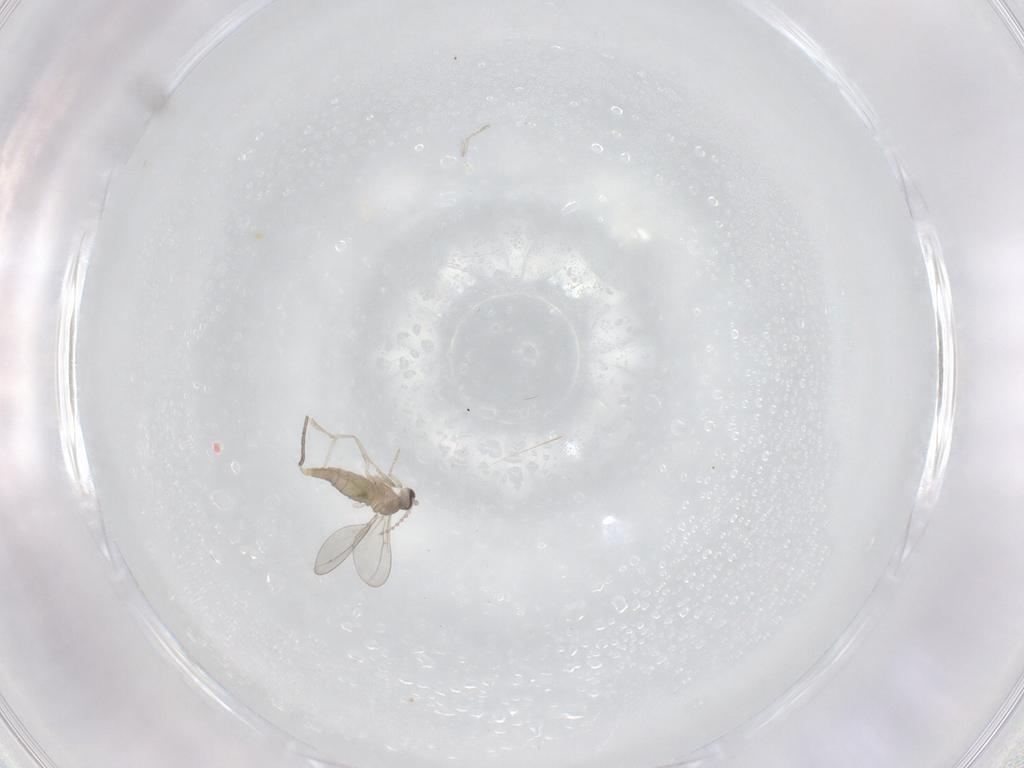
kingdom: Animalia
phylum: Arthropoda
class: Insecta
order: Diptera
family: Cecidomyiidae
